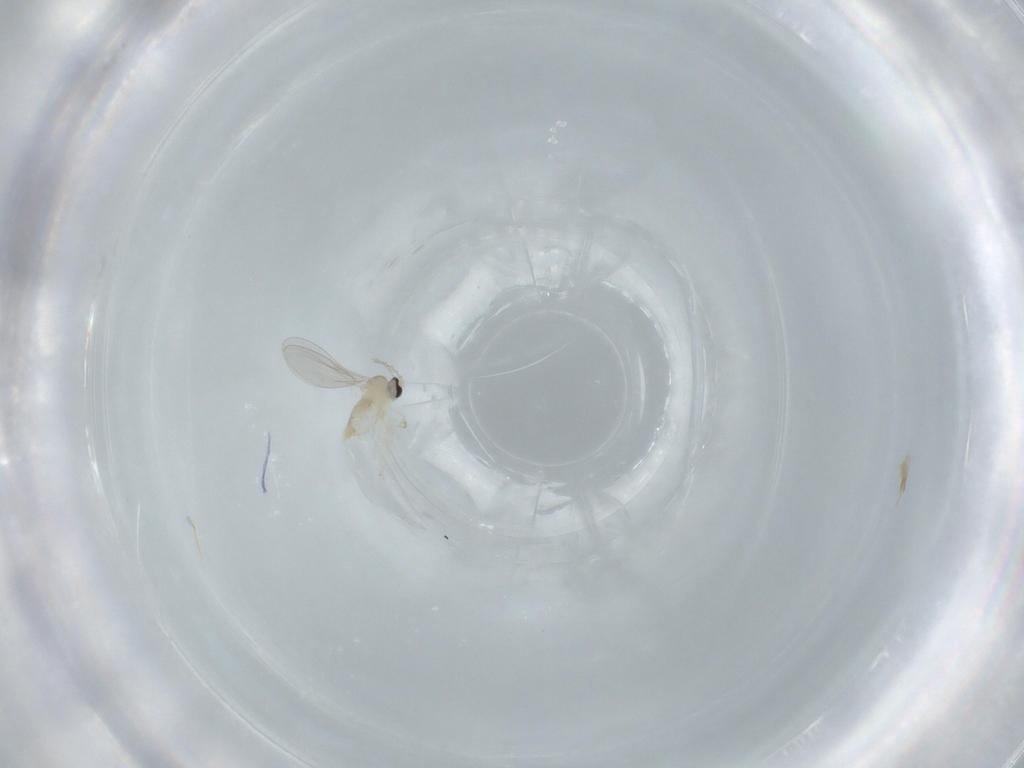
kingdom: Animalia
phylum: Arthropoda
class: Insecta
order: Diptera
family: Cecidomyiidae
